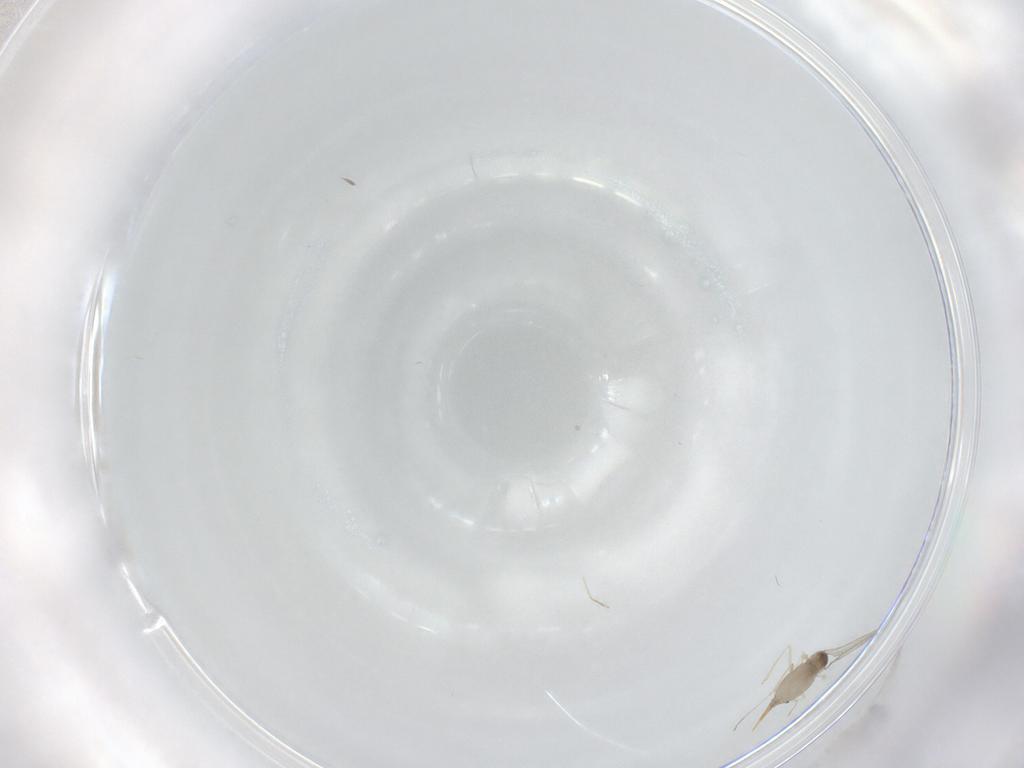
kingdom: Animalia
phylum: Arthropoda
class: Insecta
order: Diptera
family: Cecidomyiidae
